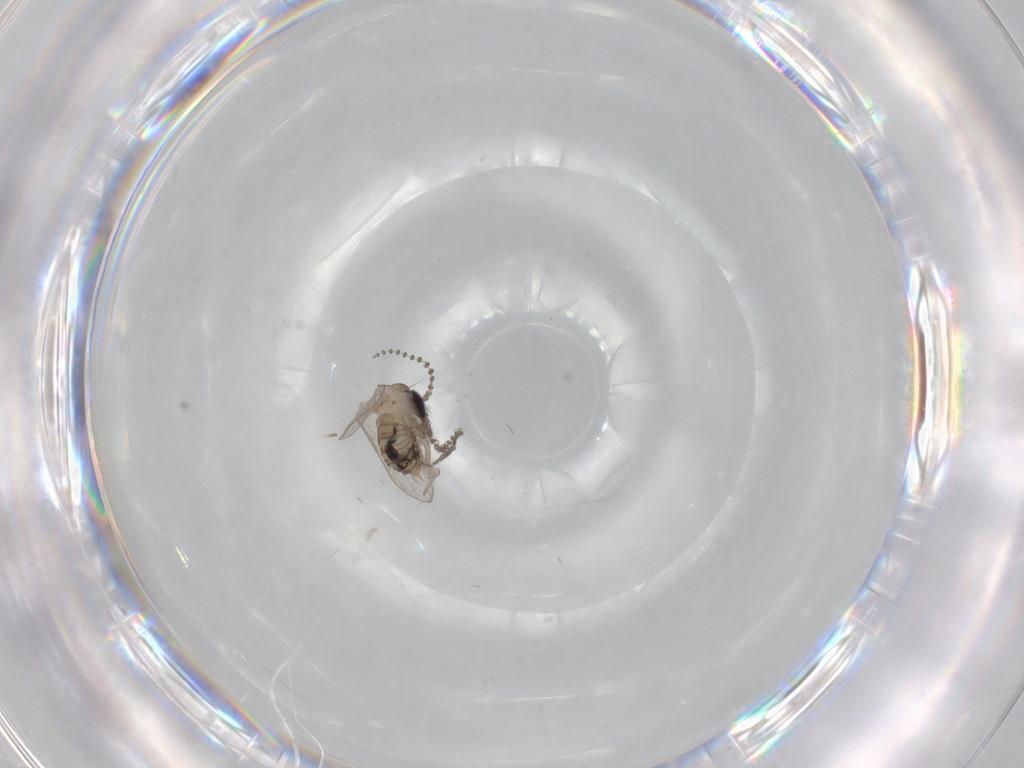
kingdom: Animalia
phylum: Arthropoda
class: Insecta
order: Diptera
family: Psychodidae
